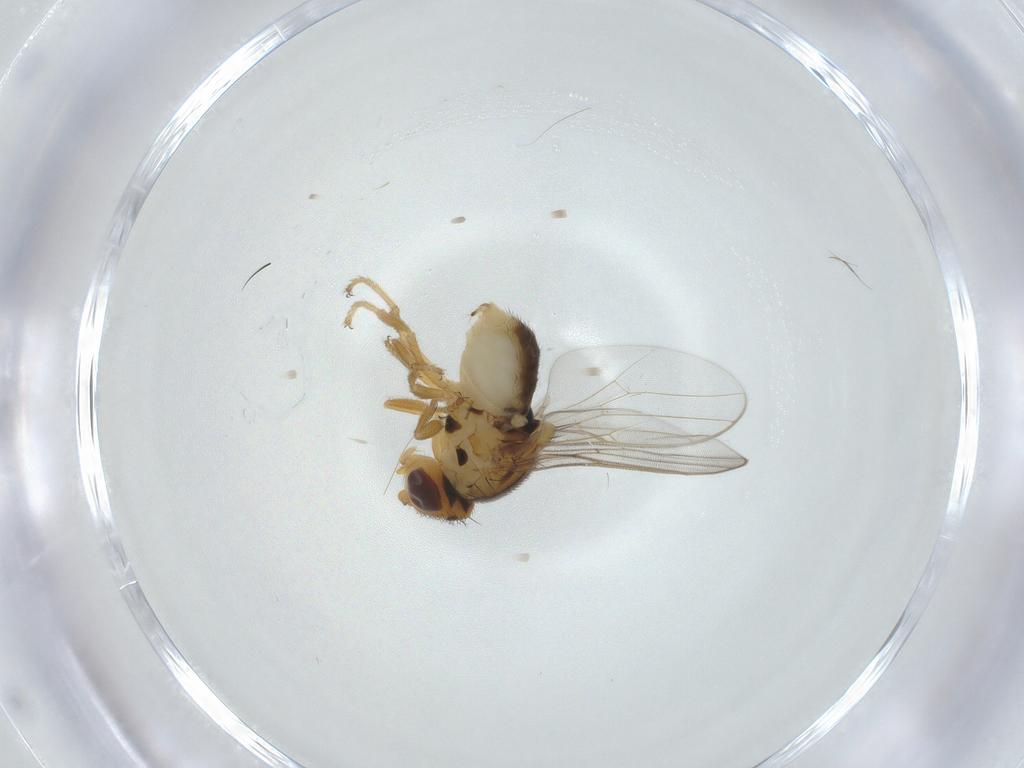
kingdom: Animalia
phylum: Arthropoda
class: Insecta
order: Diptera
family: Chloropidae
